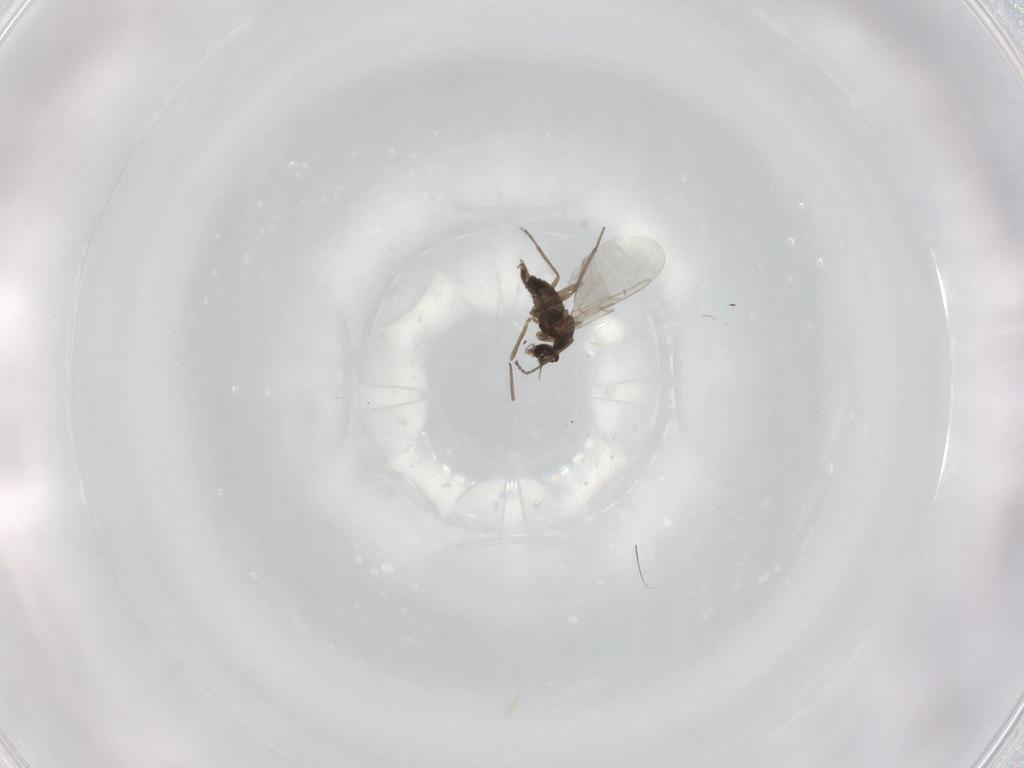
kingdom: Animalia
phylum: Arthropoda
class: Insecta
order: Diptera
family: Cecidomyiidae
